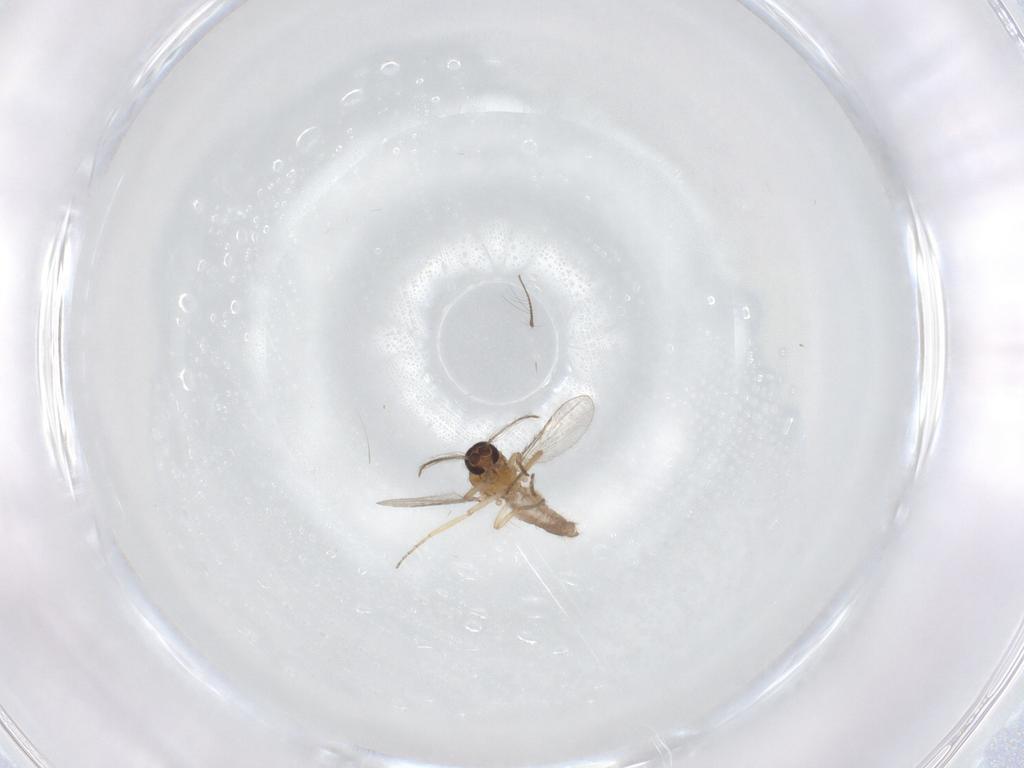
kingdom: Animalia
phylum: Arthropoda
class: Insecta
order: Diptera
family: Chironomidae
